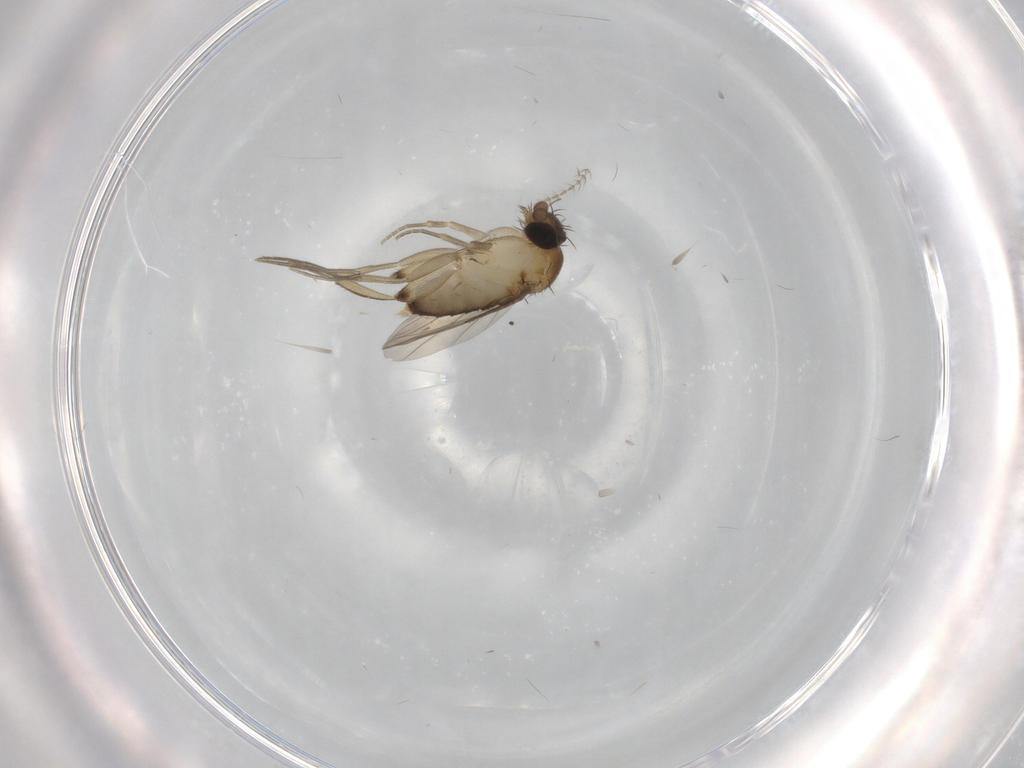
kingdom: Animalia
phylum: Arthropoda
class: Insecta
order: Diptera
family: Phoridae
